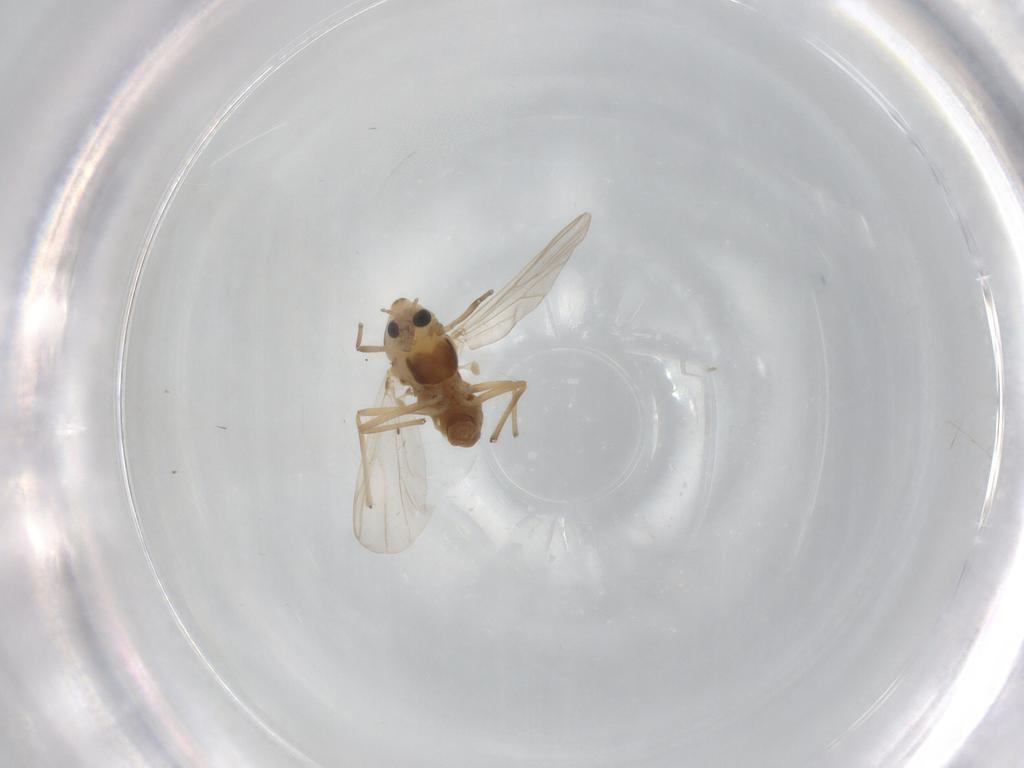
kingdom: Animalia
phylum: Arthropoda
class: Insecta
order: Diptera
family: Chironomidae
